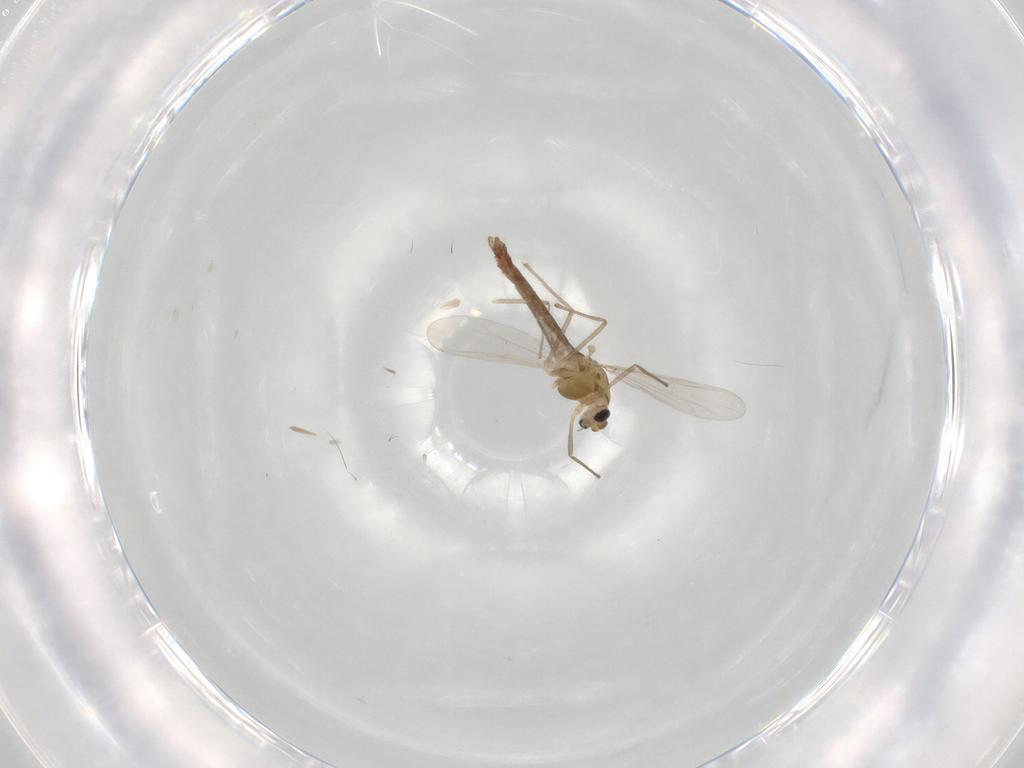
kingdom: Animalia
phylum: Arthropoda
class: Insecta
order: Diptera
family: Chironomidae
